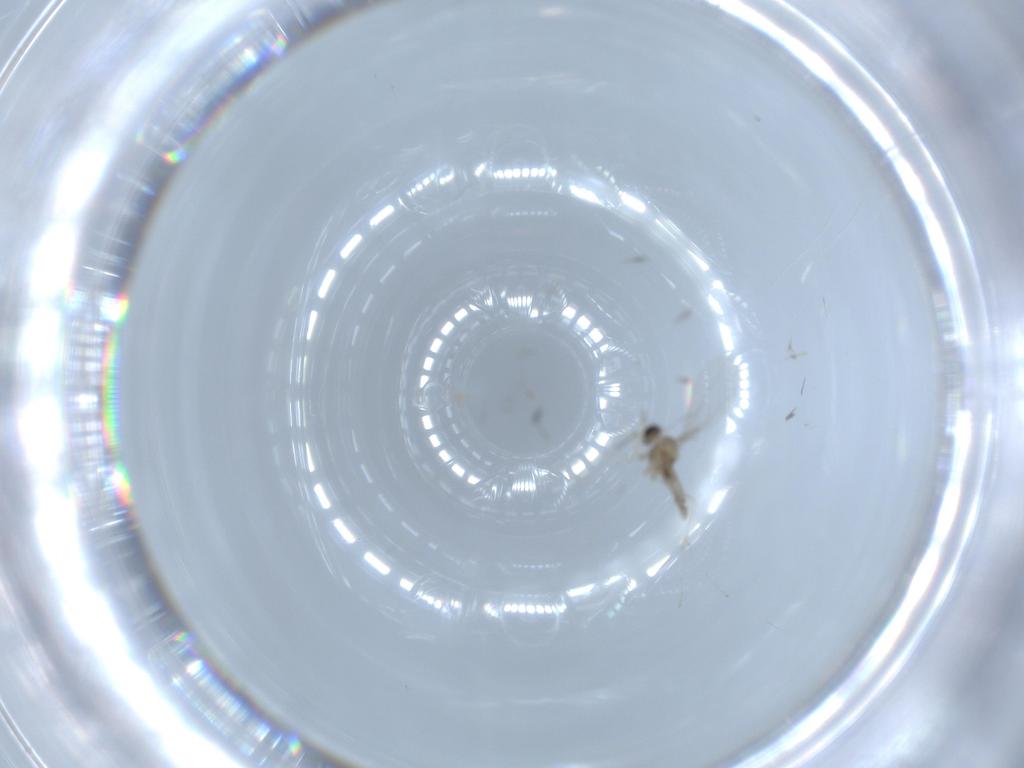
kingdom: Animalia
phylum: Arthropoda
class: Insecta
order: Diptera
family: Cecidomyiidae
